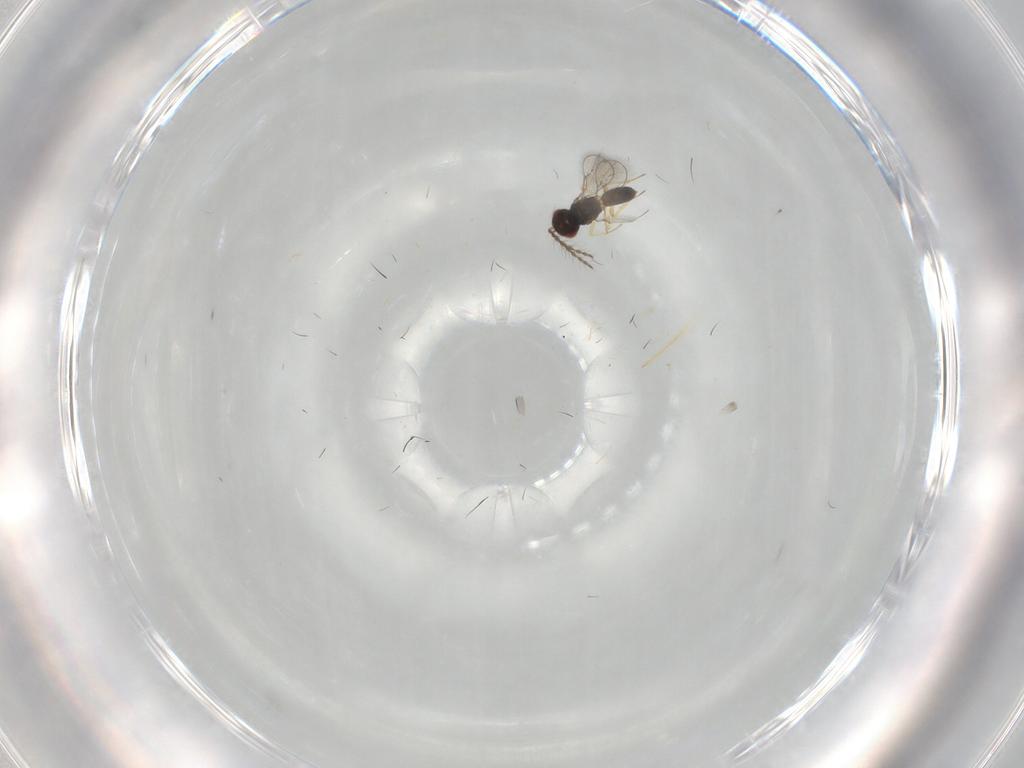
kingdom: Animalia
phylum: Arthropoda
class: Insecta
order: Hymenoptera
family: Eulophidae
